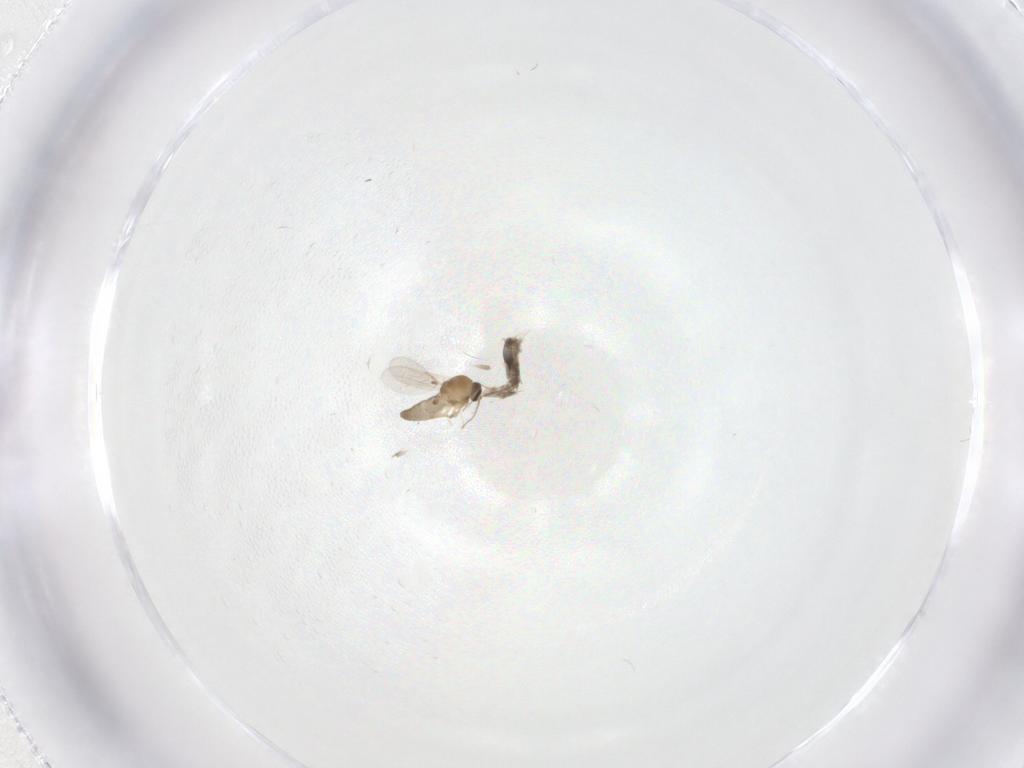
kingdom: Animalia
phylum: Arthropoda
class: Insecta
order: Diptera
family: Ceratopogonidae
